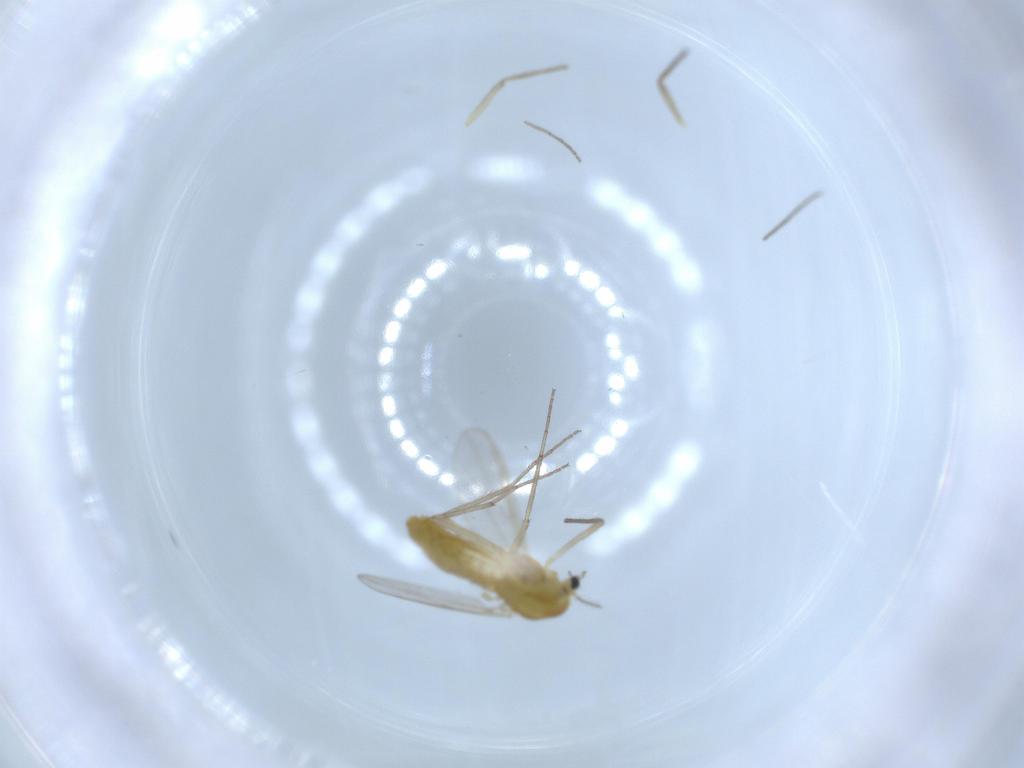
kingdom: Animalia
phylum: Arthropoda
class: Insecta
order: Diptera
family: Chironomidae
